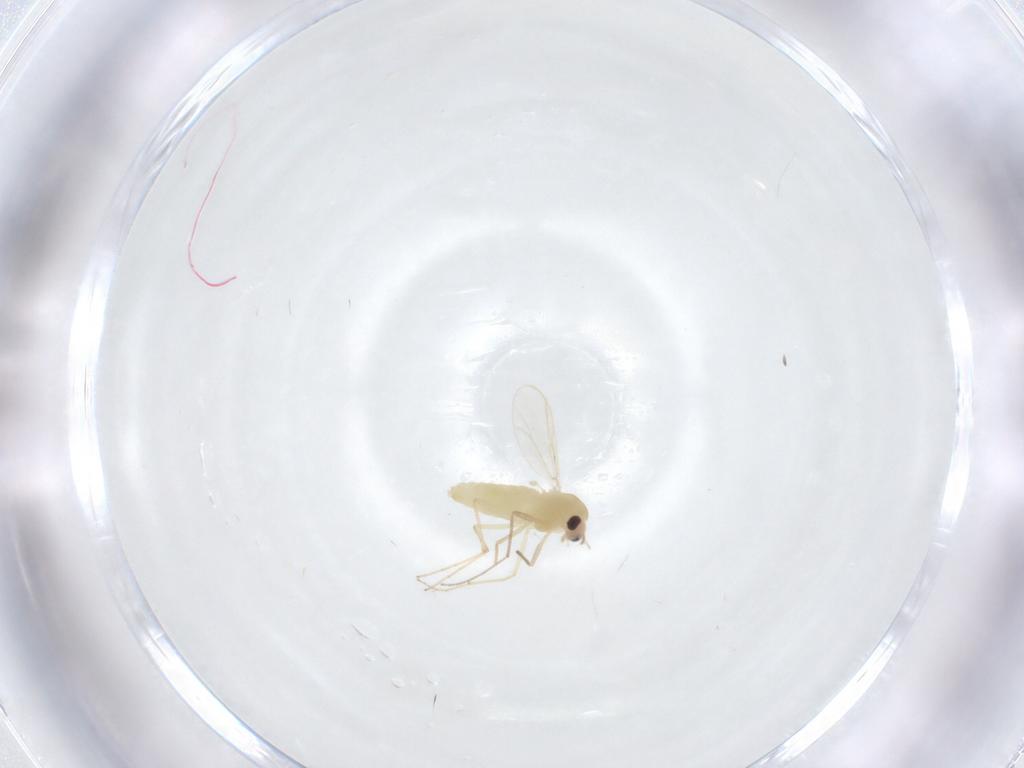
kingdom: Animalia
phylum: Arthropoda
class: Insecta
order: Diptera
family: Chironomidae
